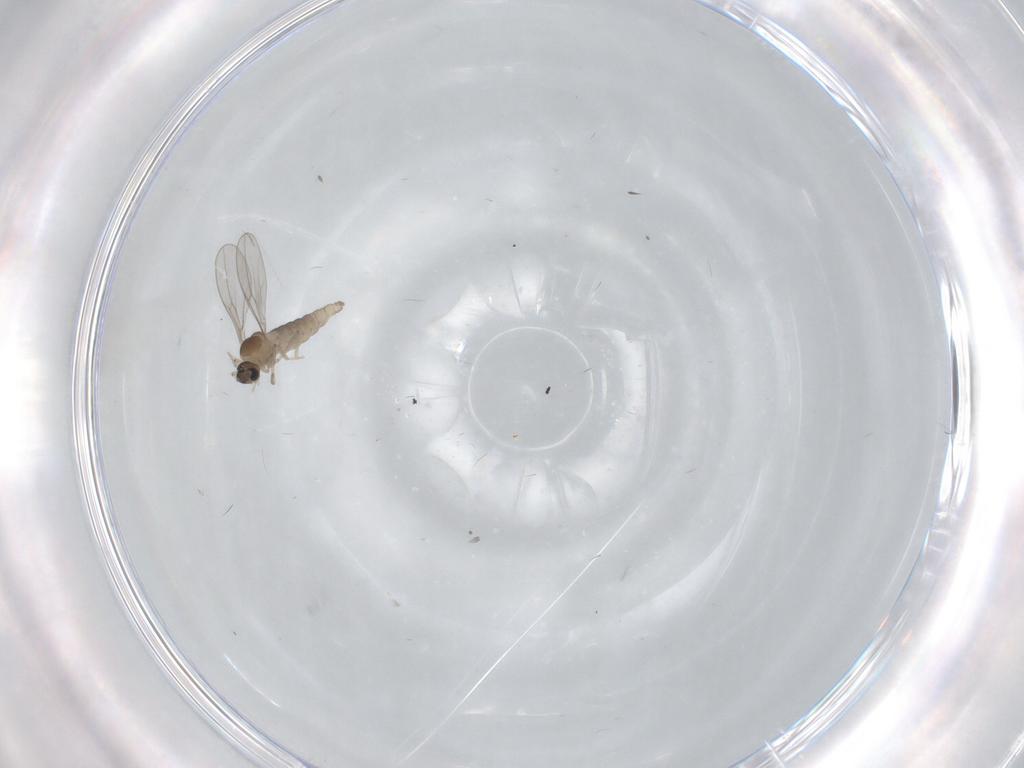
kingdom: Animalia
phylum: Arthropoda
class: Insecta
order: Diptera
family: Cecidomyiidae
